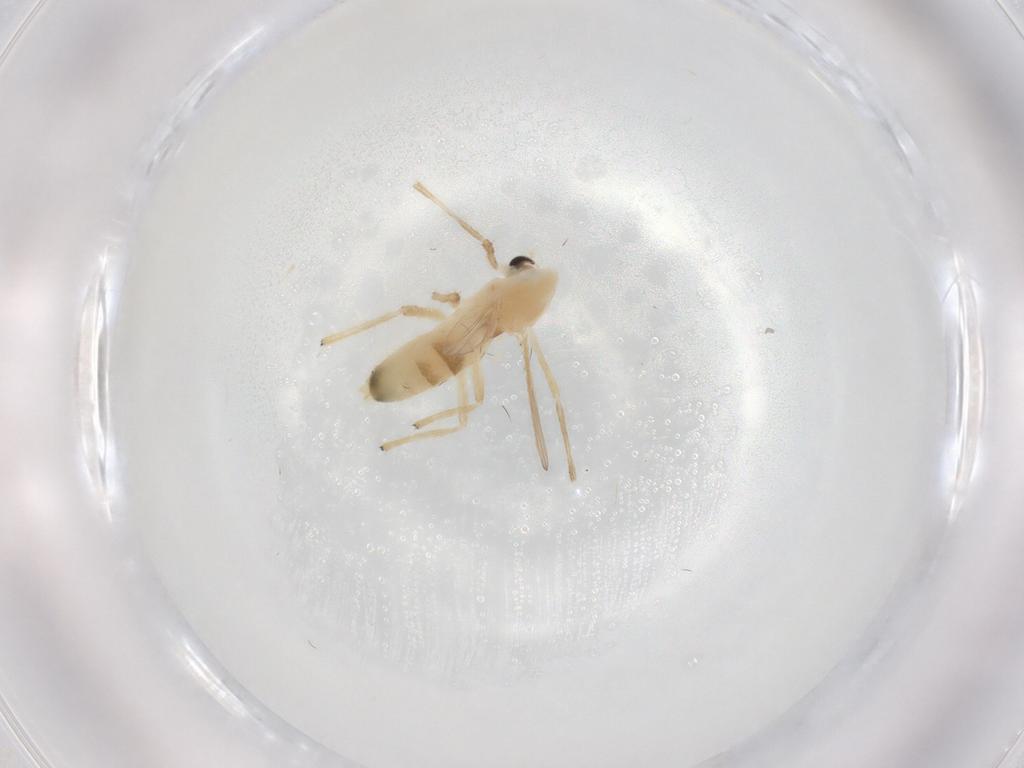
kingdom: Animalia
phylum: Arthropoda
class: Insecta
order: Diptera
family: Chironomidae
